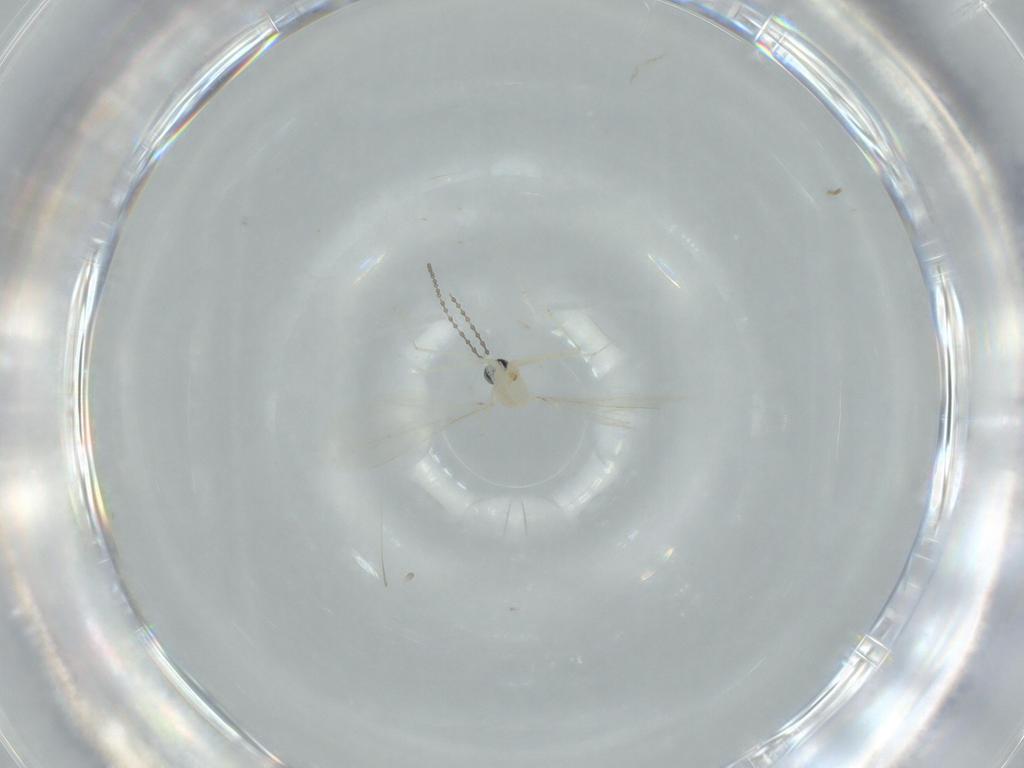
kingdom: Animalia
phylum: Arthropoda
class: Insecta
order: Diptera
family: Cecidomyiidae
